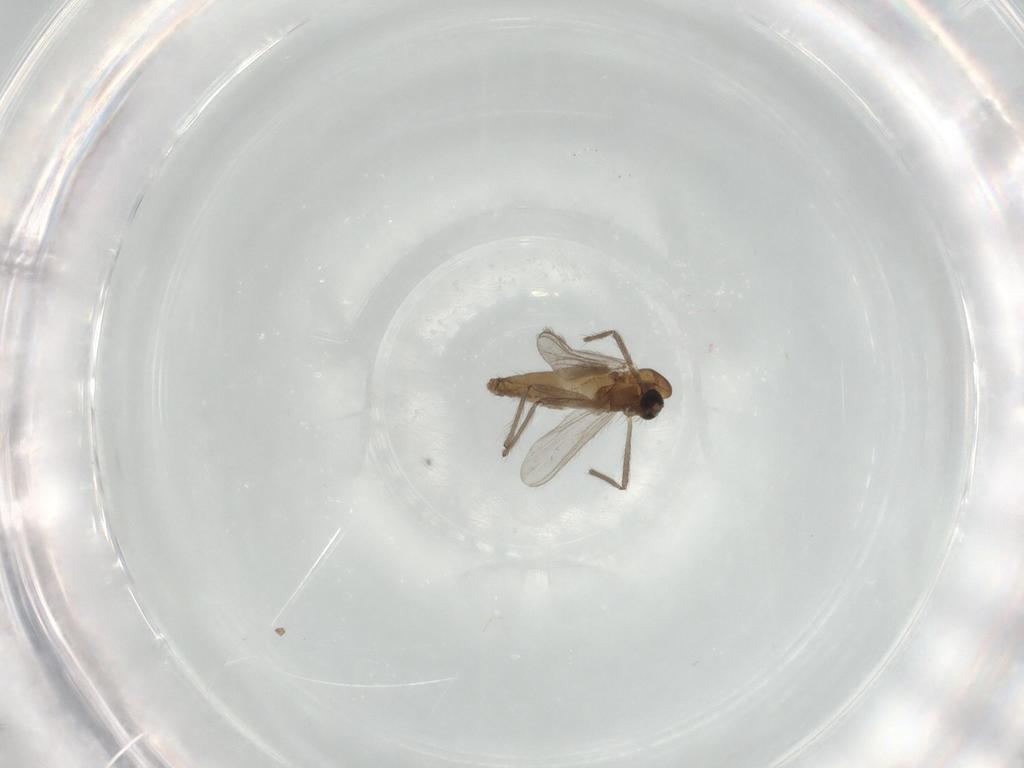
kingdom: Animalia
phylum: Arthropoda
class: Insecta
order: Diptera
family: Chironomidae
